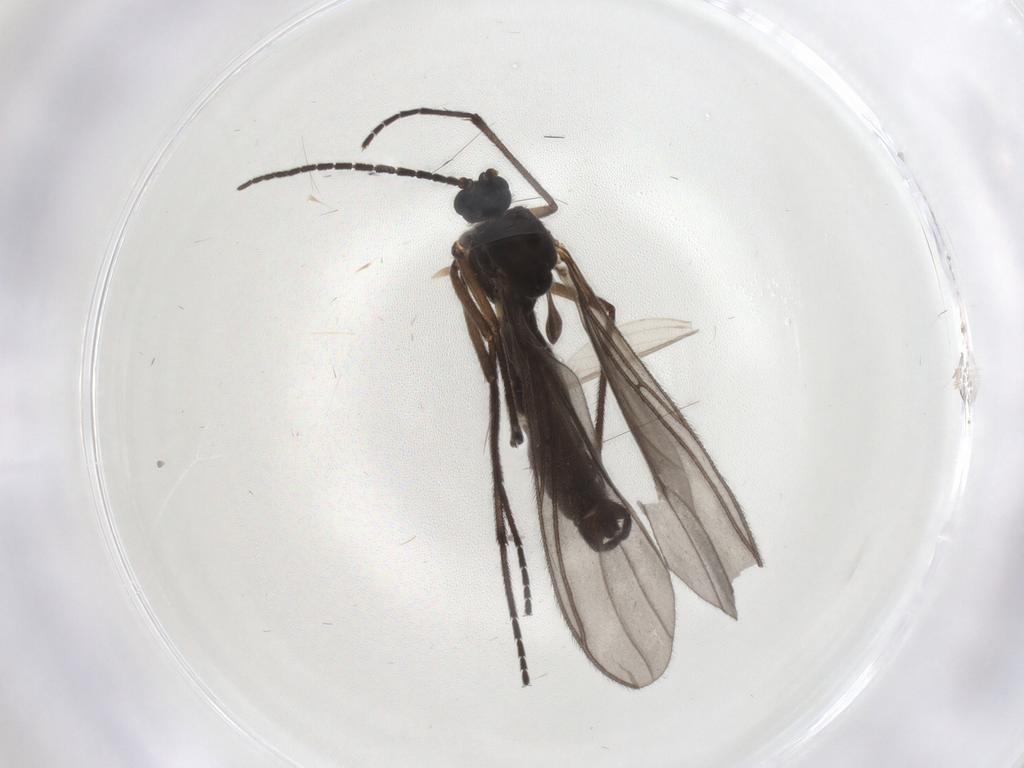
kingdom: Animalia
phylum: Arthropoda
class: Insecta
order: Diptera
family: Sciaridae
